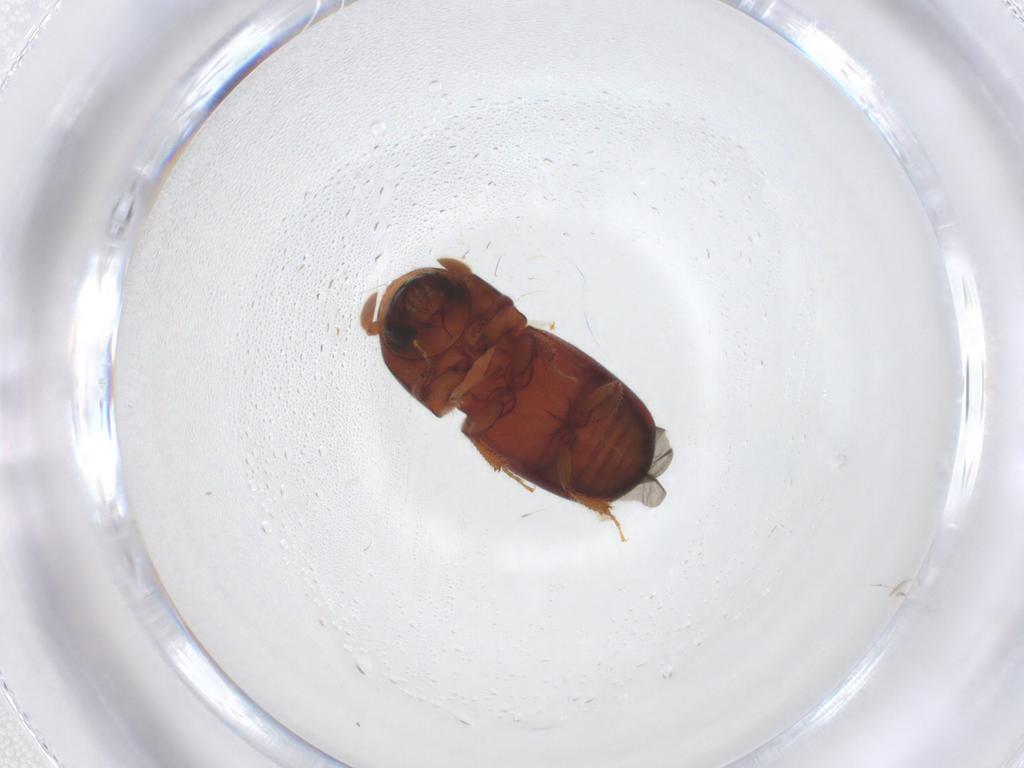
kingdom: Animalia
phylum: Arthropoda
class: Insecta
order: Coleoptera
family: Curculionidae
